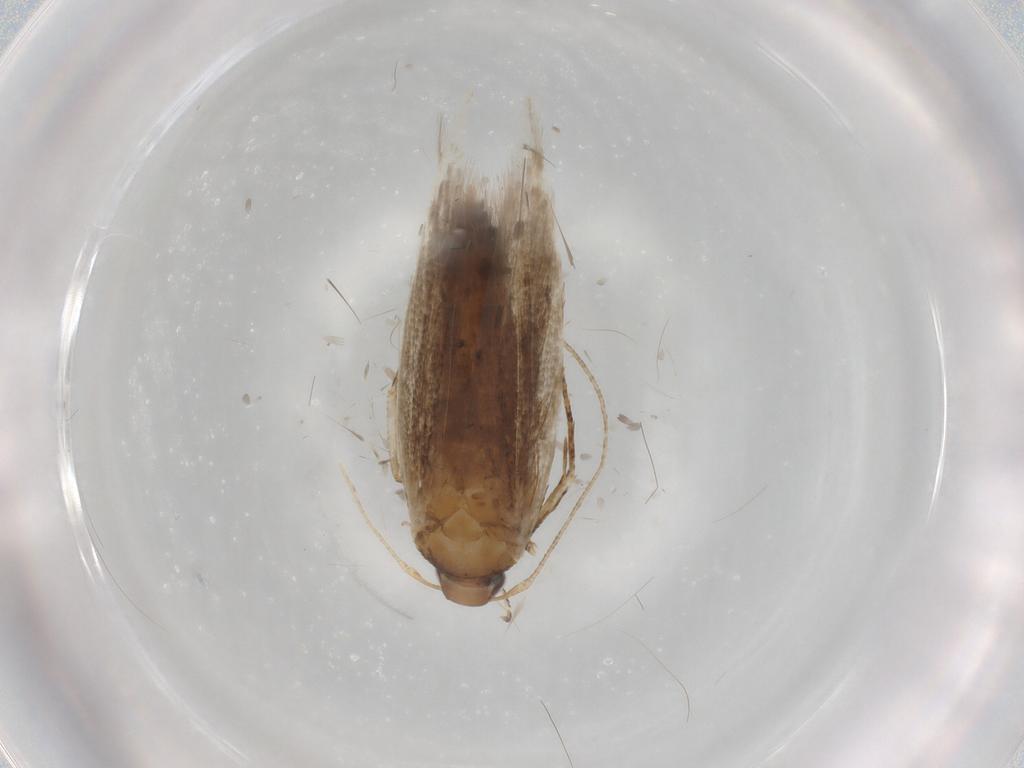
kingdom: Animalia
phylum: Arthropoda
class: Insecta
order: Lepidoptera
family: Cosmopterigidae
